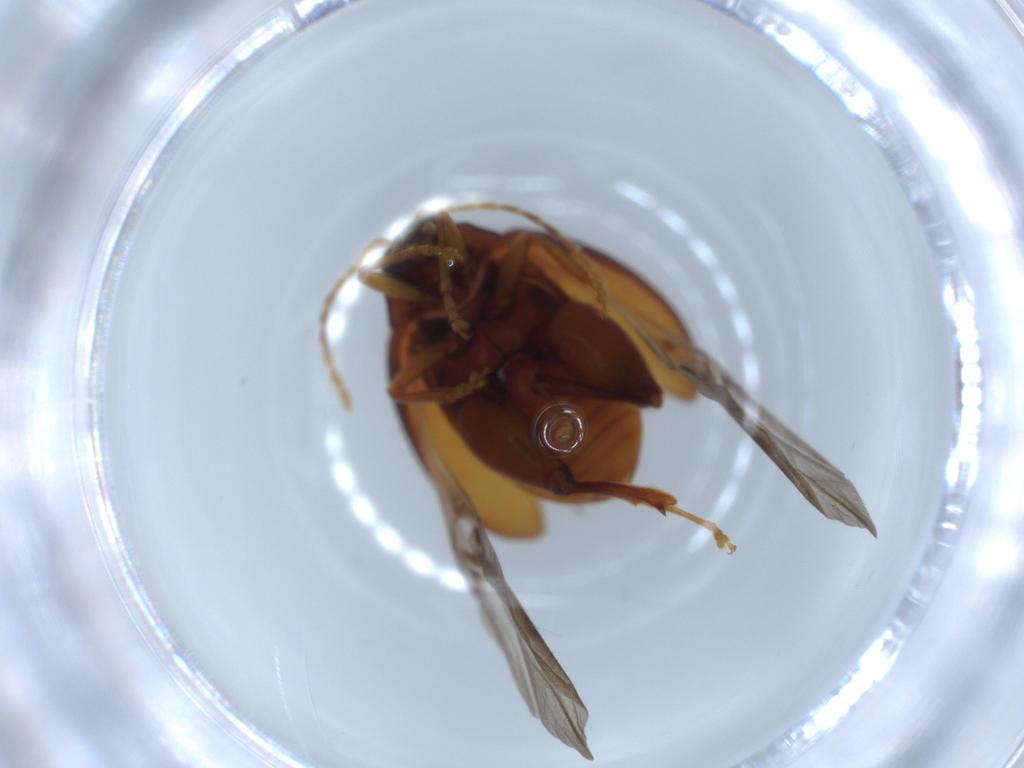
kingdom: Animalia
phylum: Arthropoda
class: Insecta
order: Coleoptera
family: Chrysomelidae
